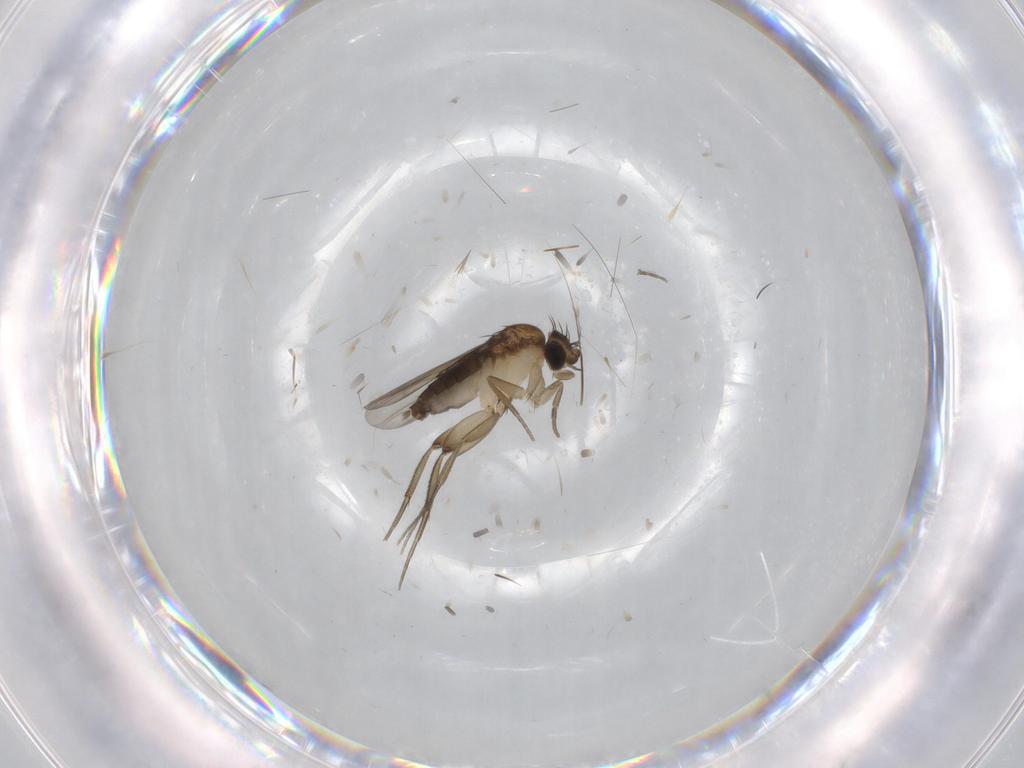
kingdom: Animalia
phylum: Arthropoda
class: Insecta
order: Diptera
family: Phoridae
